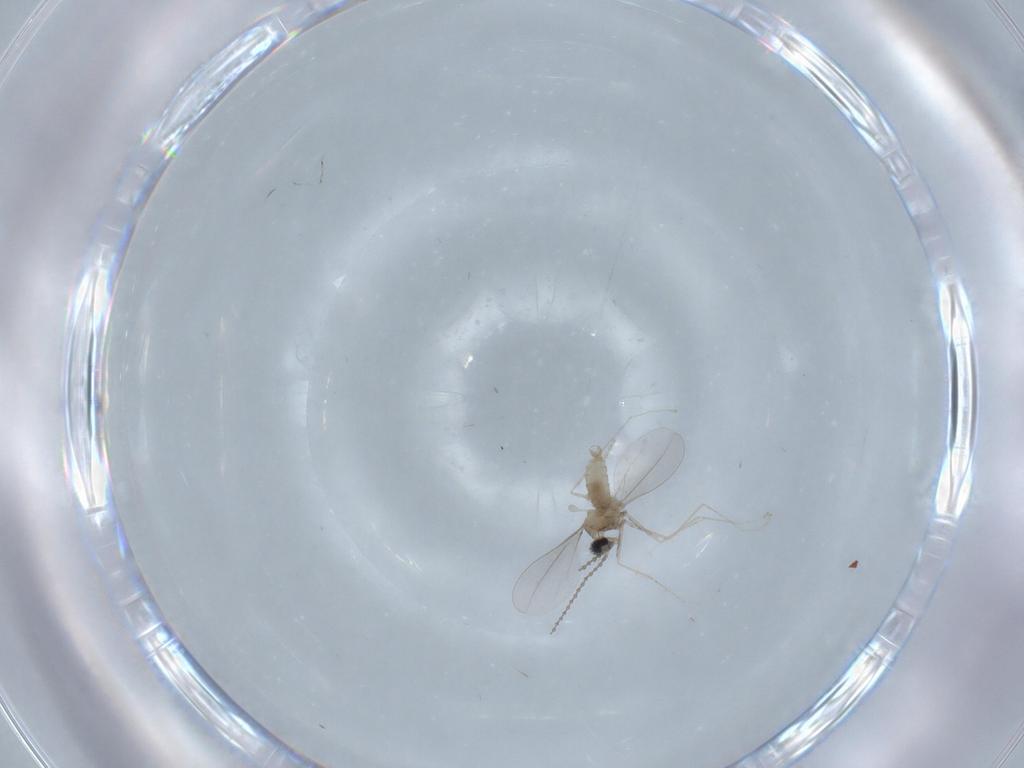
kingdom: Animalia
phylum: Arthropoda
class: Insecta
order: Diptera
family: Cecidomyiidae
